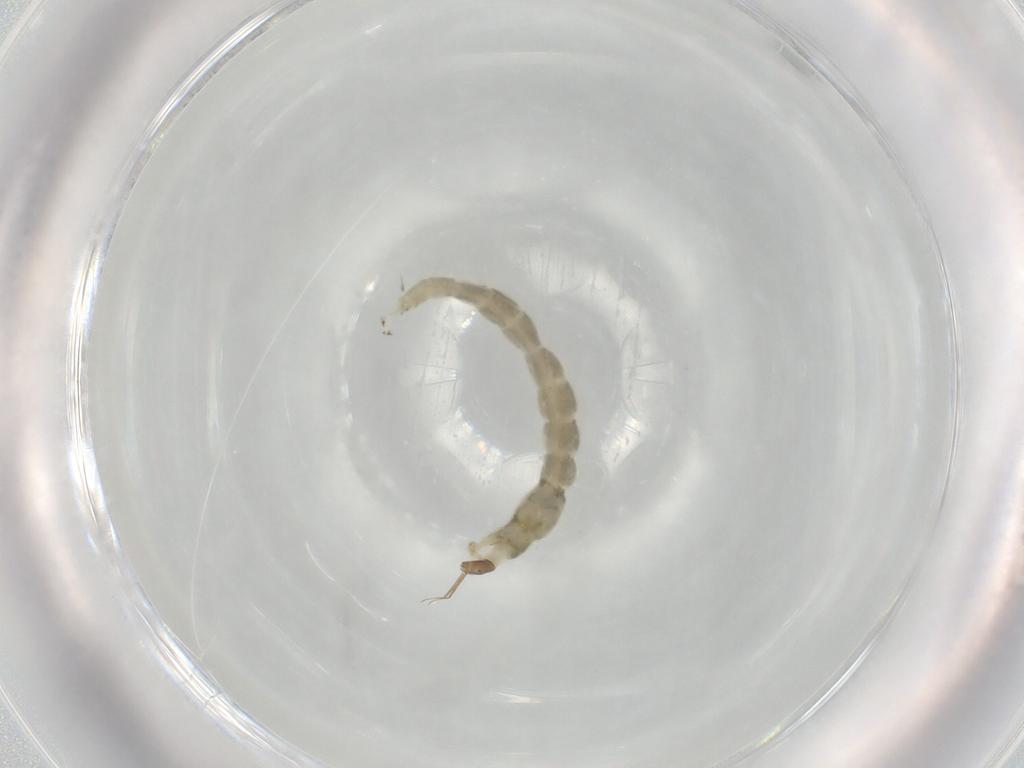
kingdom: Animalia
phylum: Arthropoda
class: Insecta
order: Diptera
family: Chironomidae
